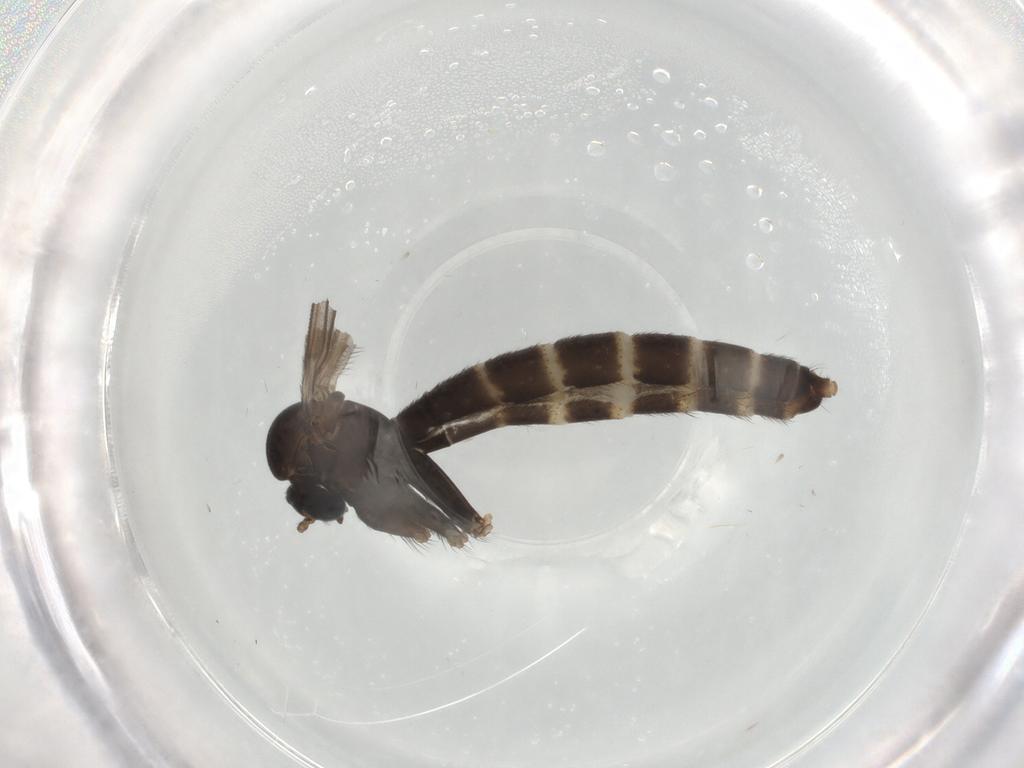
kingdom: Animalia
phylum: Arthropoda
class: Insecta
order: Diptera
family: Ditomyiidae
